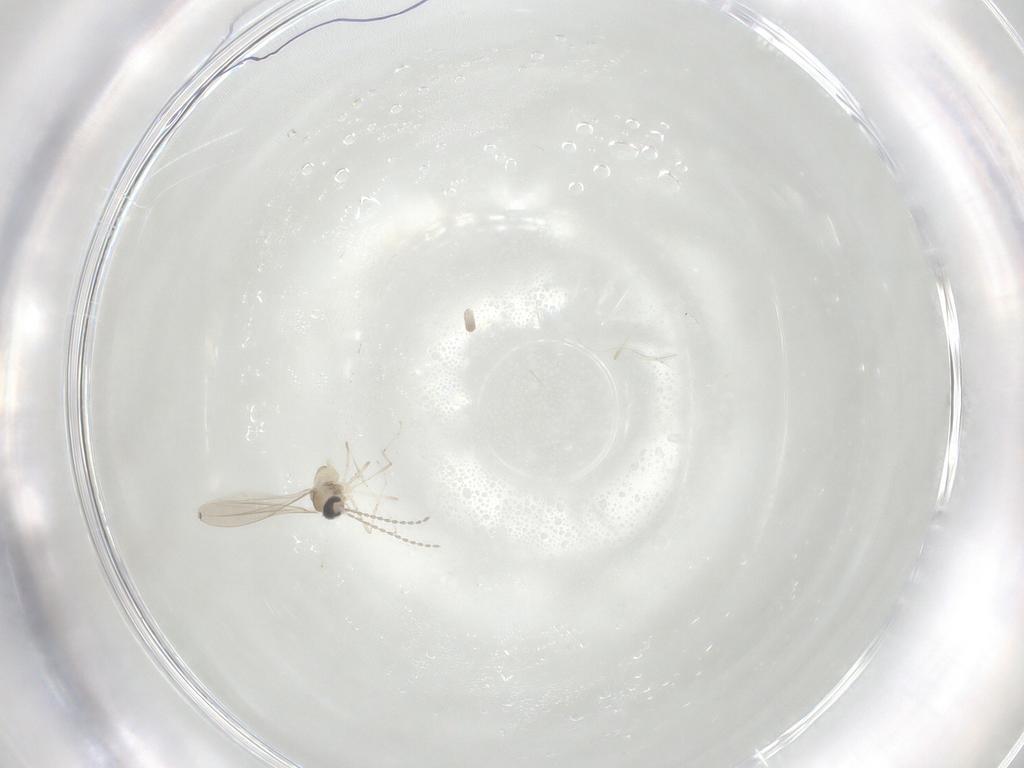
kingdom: Animalia
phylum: Arthropoda
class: Insecta
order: Diptera
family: Cecidomyiidae
